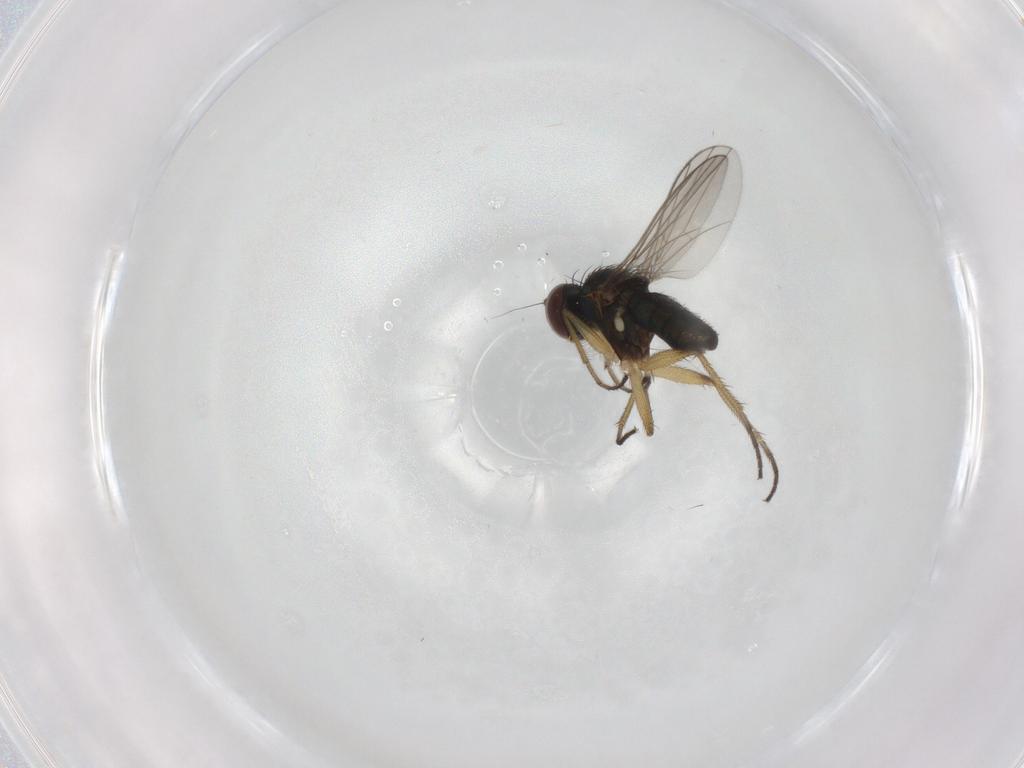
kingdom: Animalia
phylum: Arthropoda
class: Insecta
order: Diptera
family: Dolichopodidae
